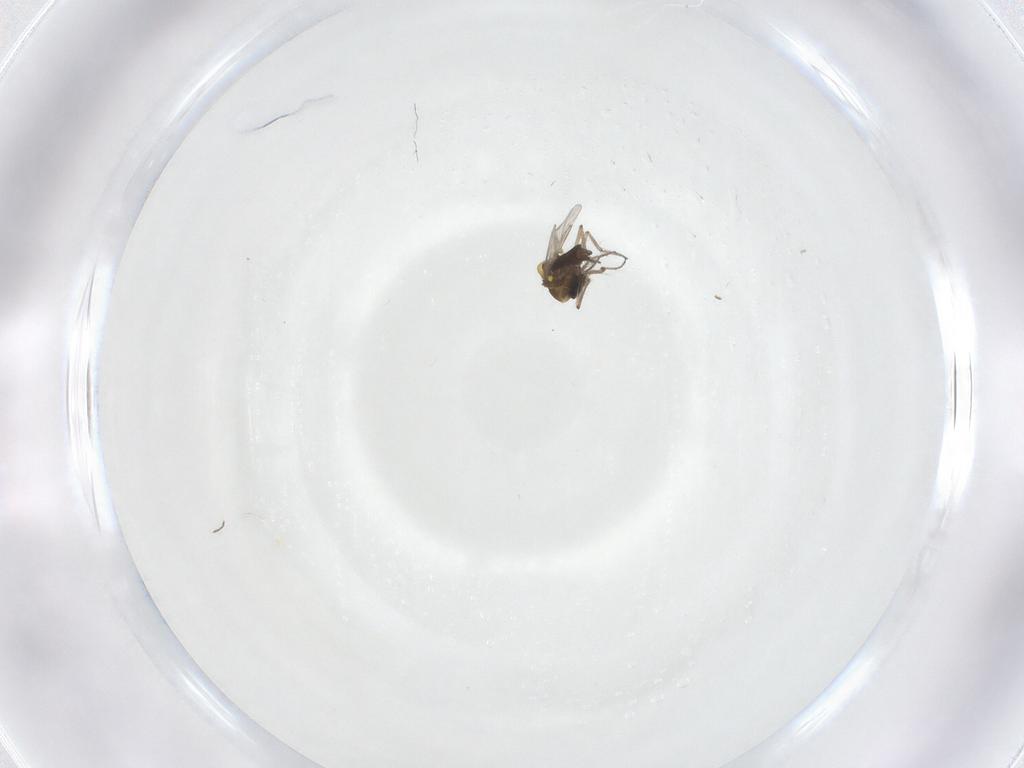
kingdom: Animalia
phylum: Arthropoda
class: Insecta
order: Diptera
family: Ceratopogonidae
